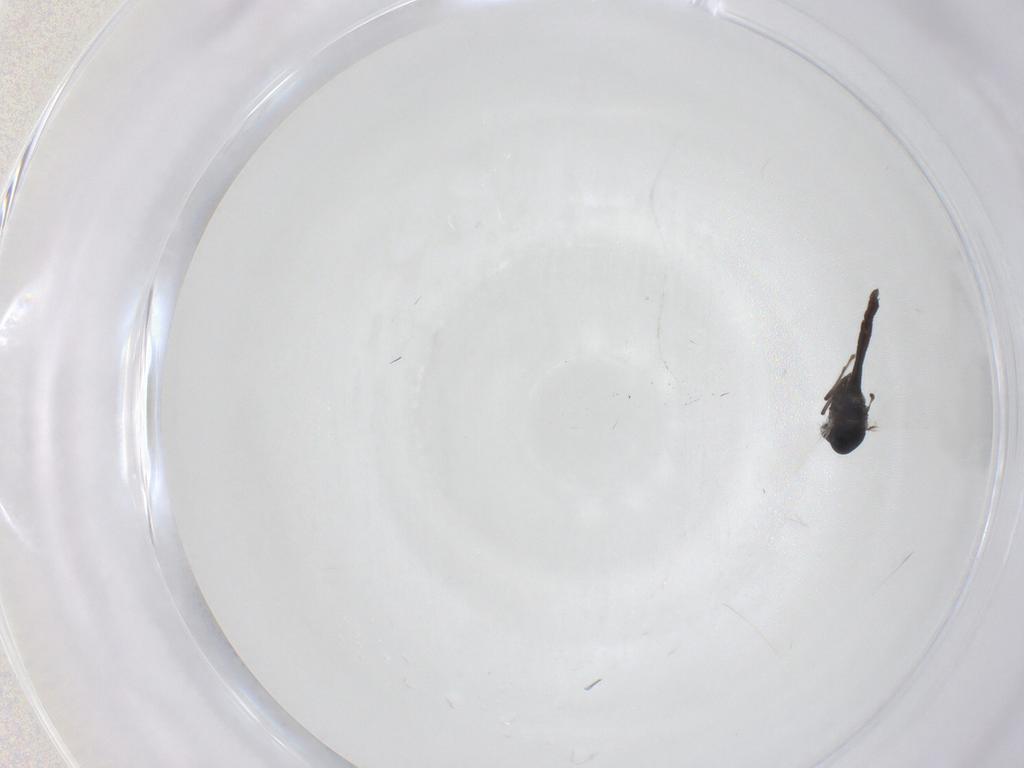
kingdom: Animalia
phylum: Arthropoda
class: Insecta
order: Diptera
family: Chironomidae
